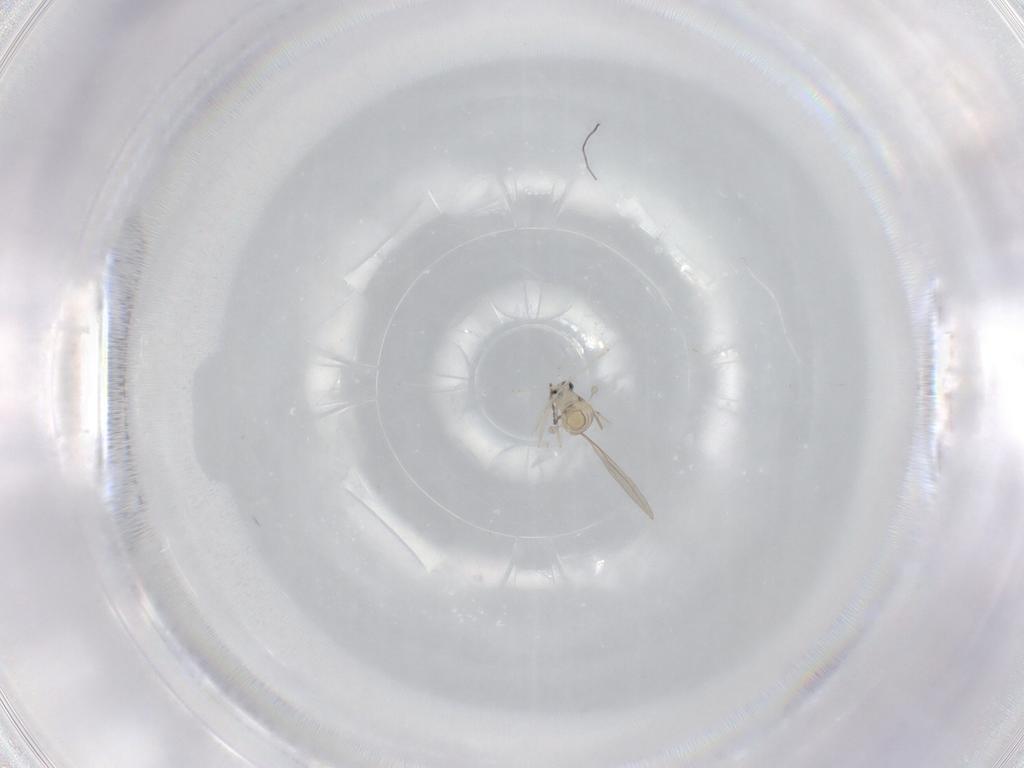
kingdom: Animalia
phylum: Arthropoda
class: Insecta
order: Diptera
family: Cecidomyiidae
